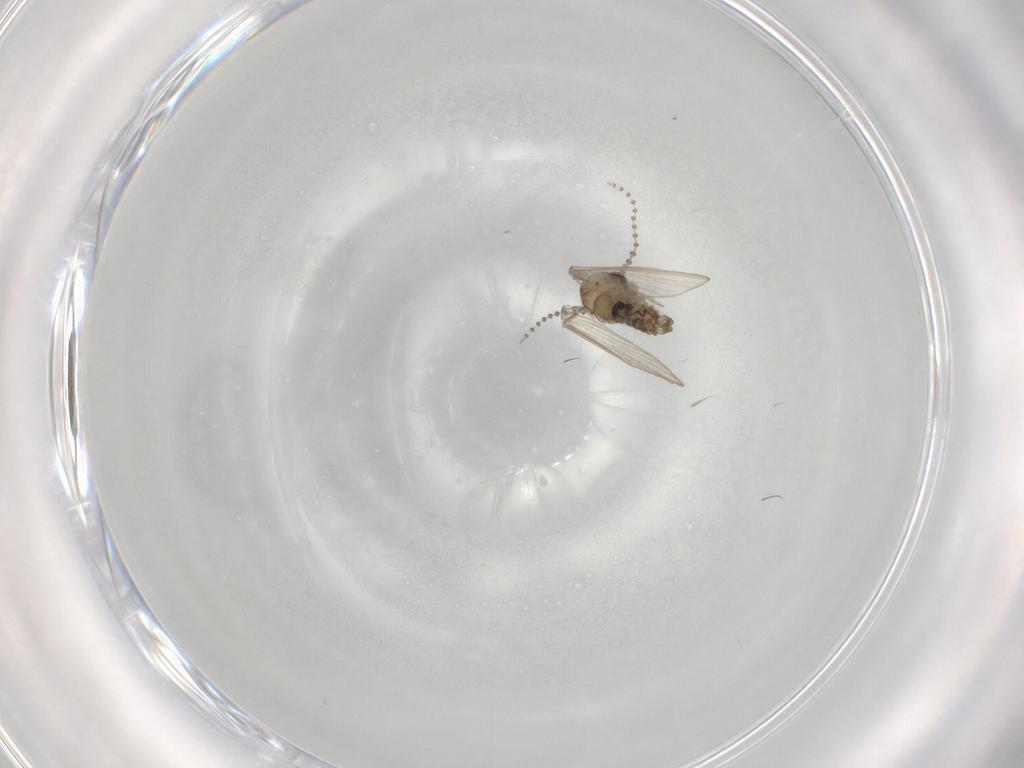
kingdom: Animalia
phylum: Arthropoda
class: Insecta
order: Diptera
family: Psychodidae
